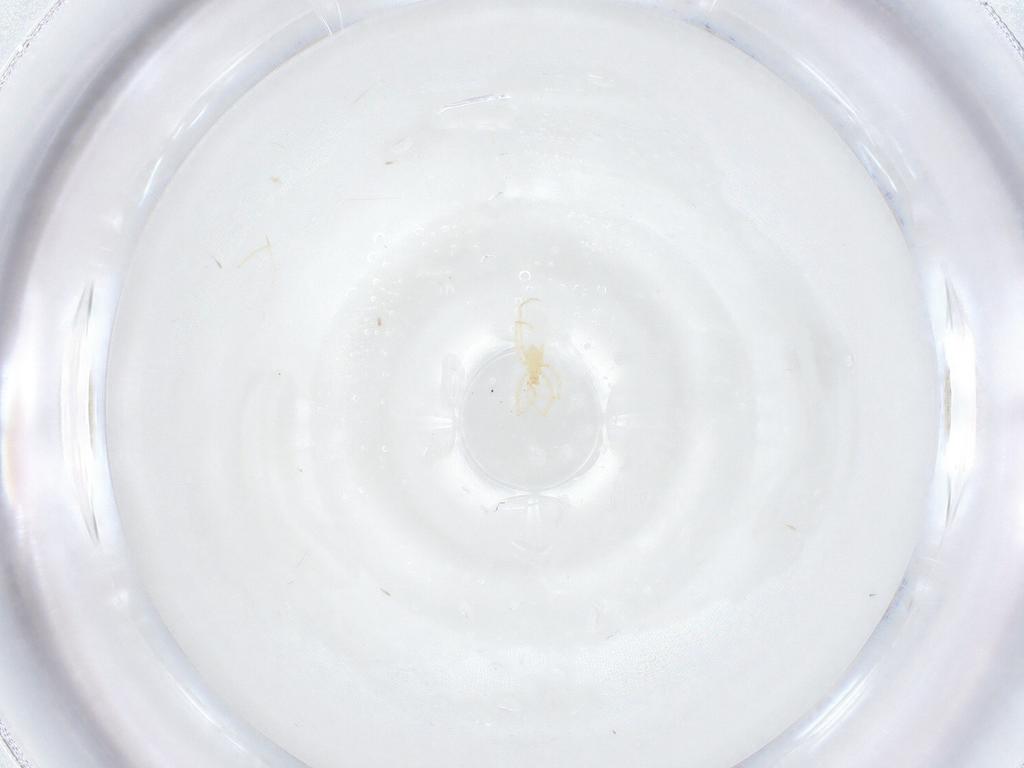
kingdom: Animalia
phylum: Arthropoda
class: Arachnida
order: Trombidiformes
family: Erythraeidae
